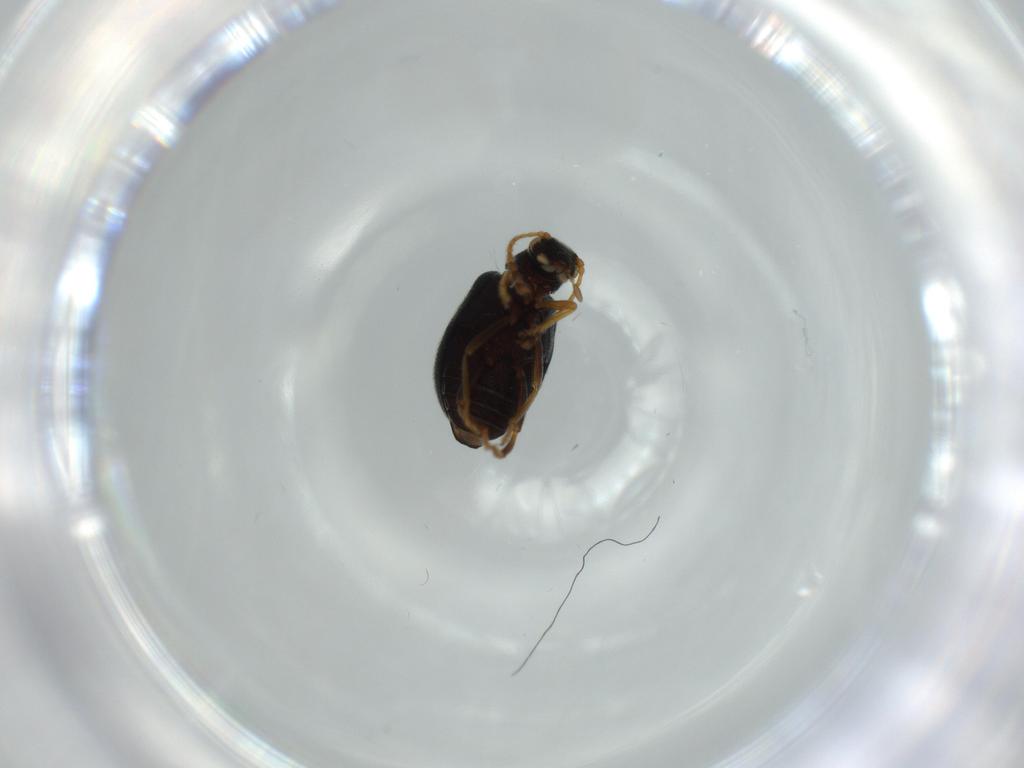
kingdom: Animalia
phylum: Arthropoda
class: Insecta
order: Coleoptera
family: Aderidae
